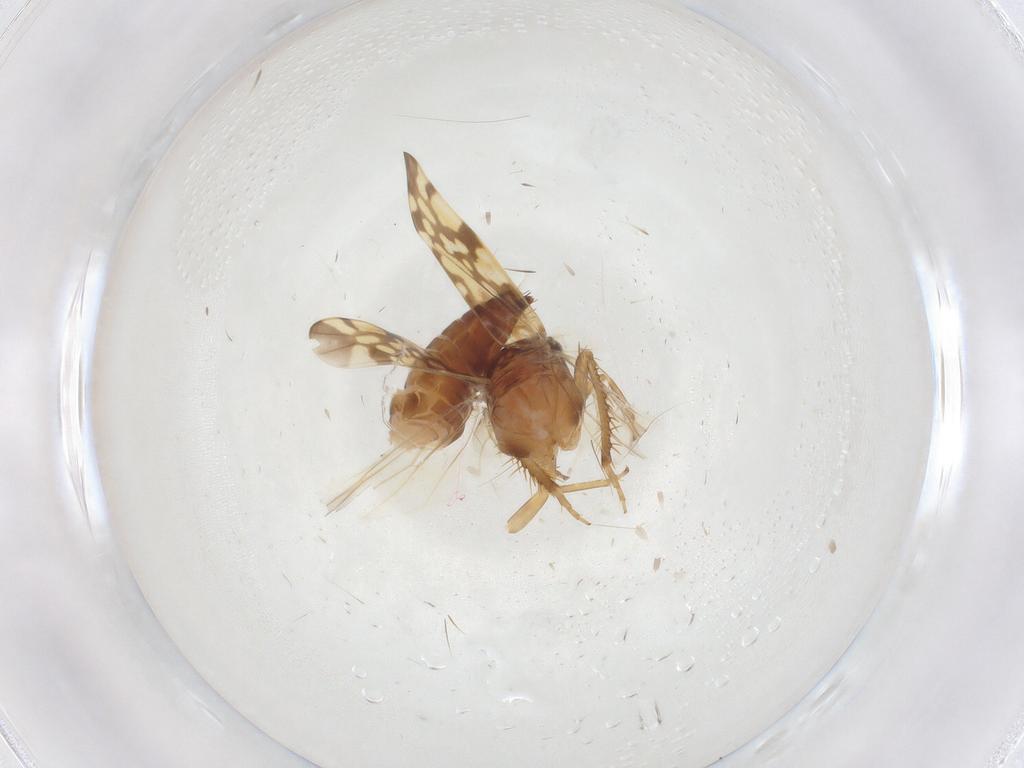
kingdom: Animalia
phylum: Arthropoda
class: Insecta
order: Hemiptera
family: Cicadellidae
